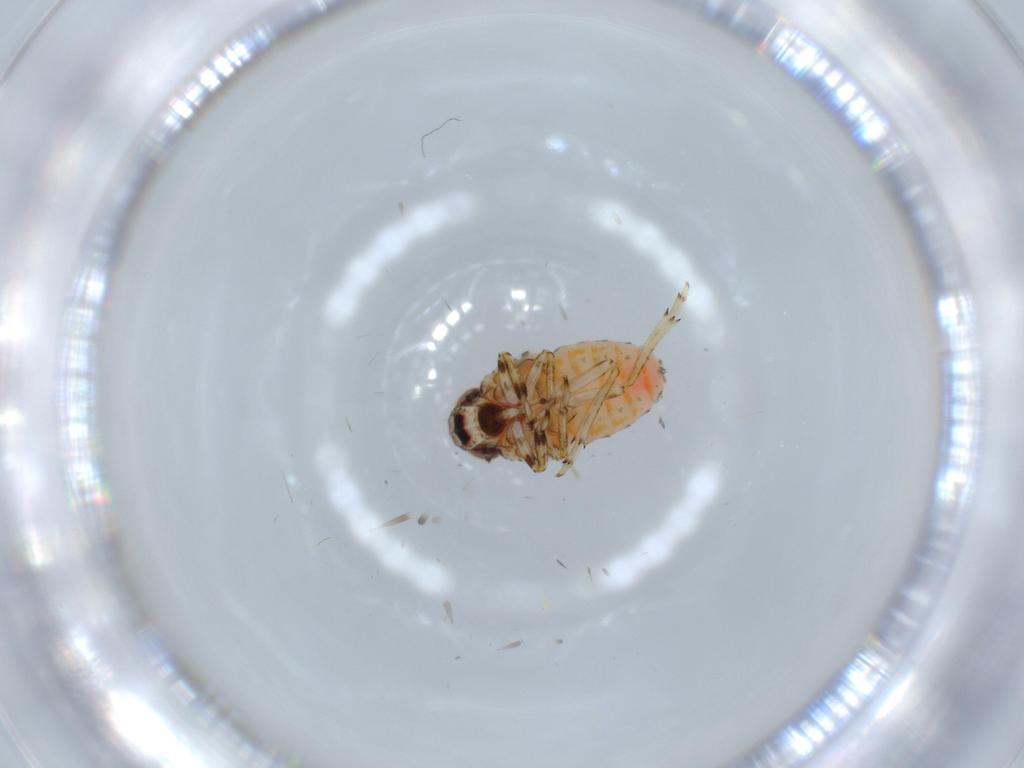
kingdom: Animalia
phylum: Arthropoda
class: Insecta
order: Hemiptera
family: Issidae
